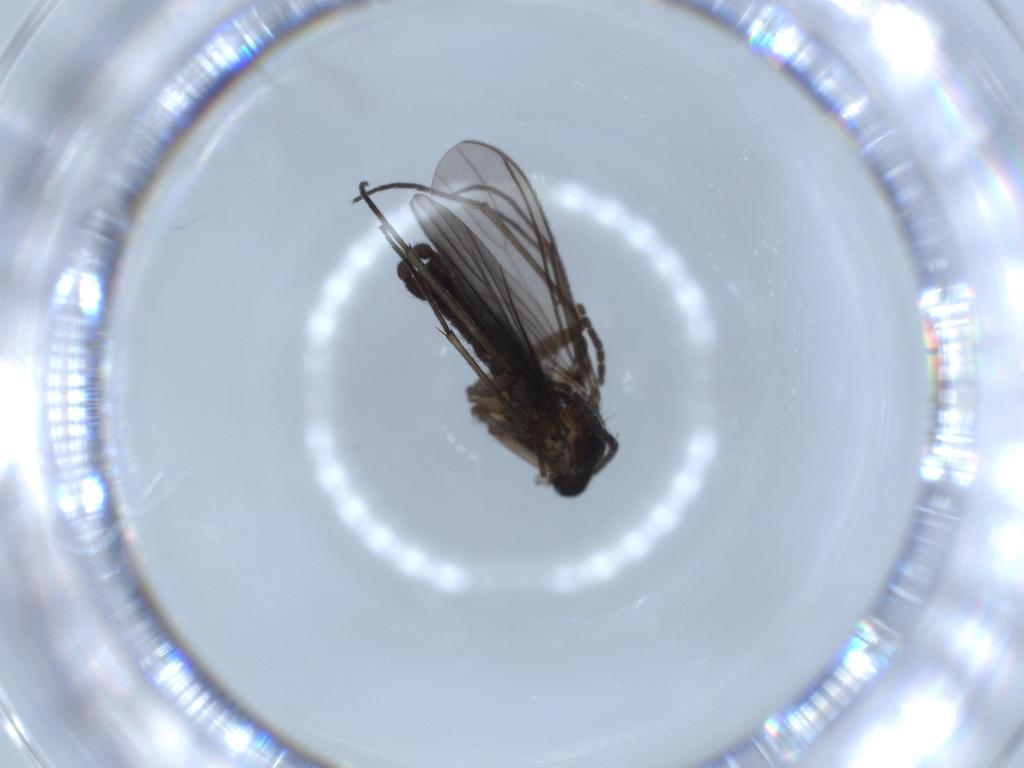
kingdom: Animalia
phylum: Arthropoda
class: Insecta
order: Diptera
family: Sciaridae
